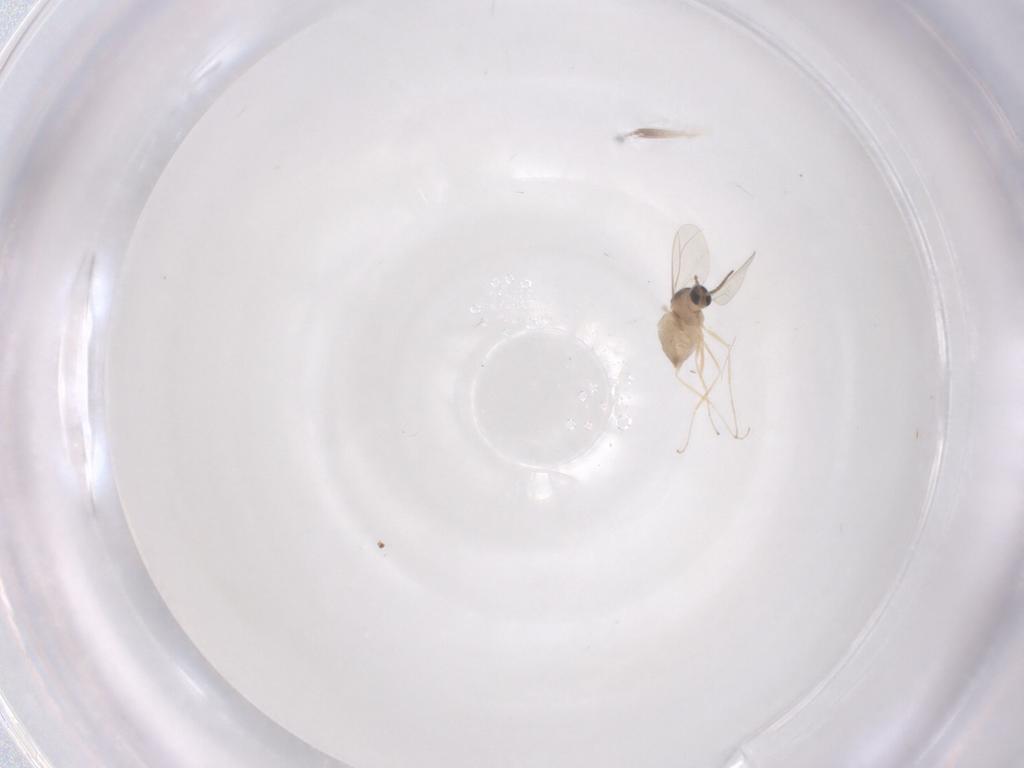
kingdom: Animalia
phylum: Arthropoda
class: Insecta
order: Diptera
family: Cecidomyiidae
